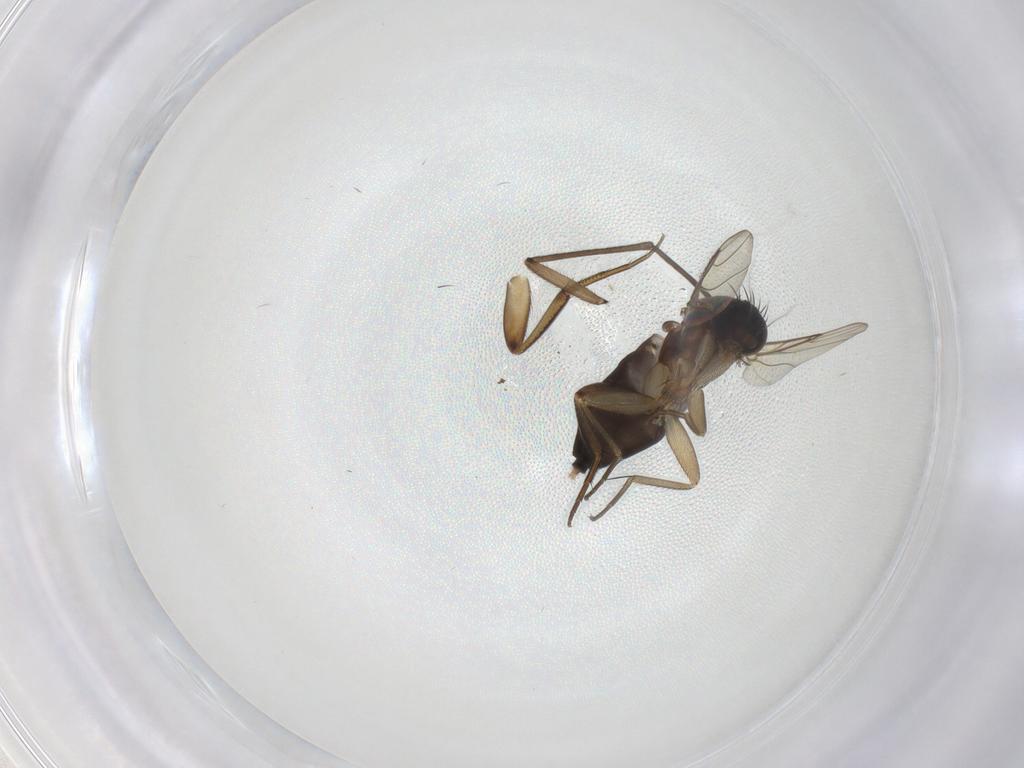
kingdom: Animalia
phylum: Arthropoda
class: Insecta
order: Diptera
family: Phoridae
